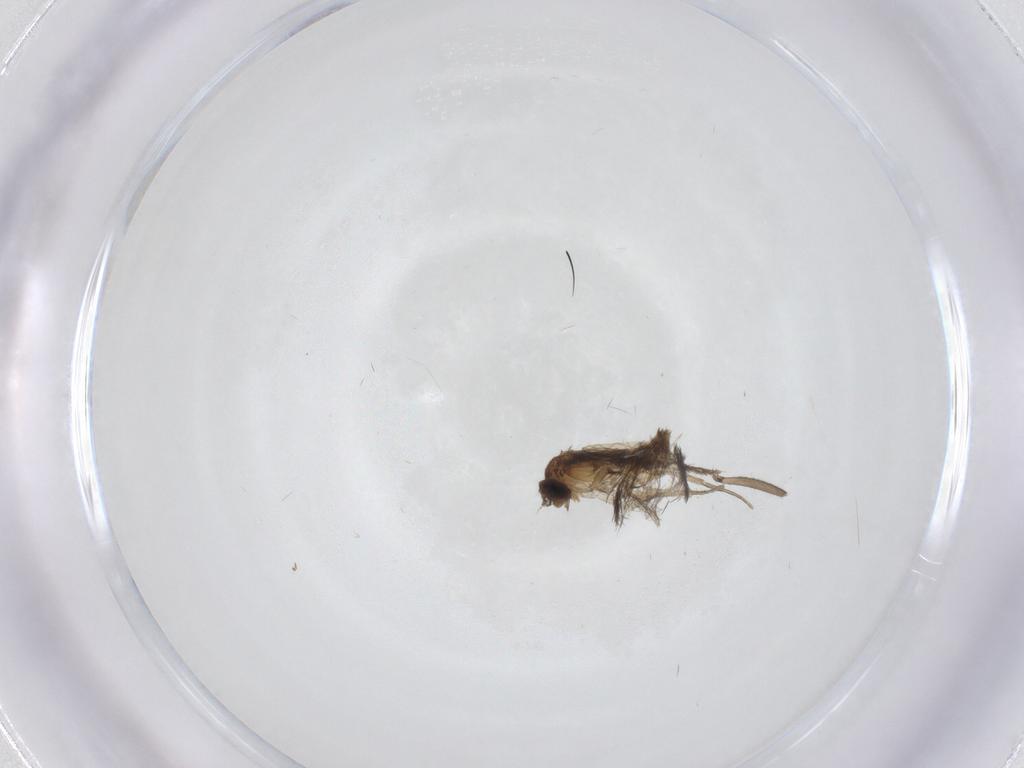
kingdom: Animalia
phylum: Arthropoda
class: Insecta
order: Diptera
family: Phoridae
